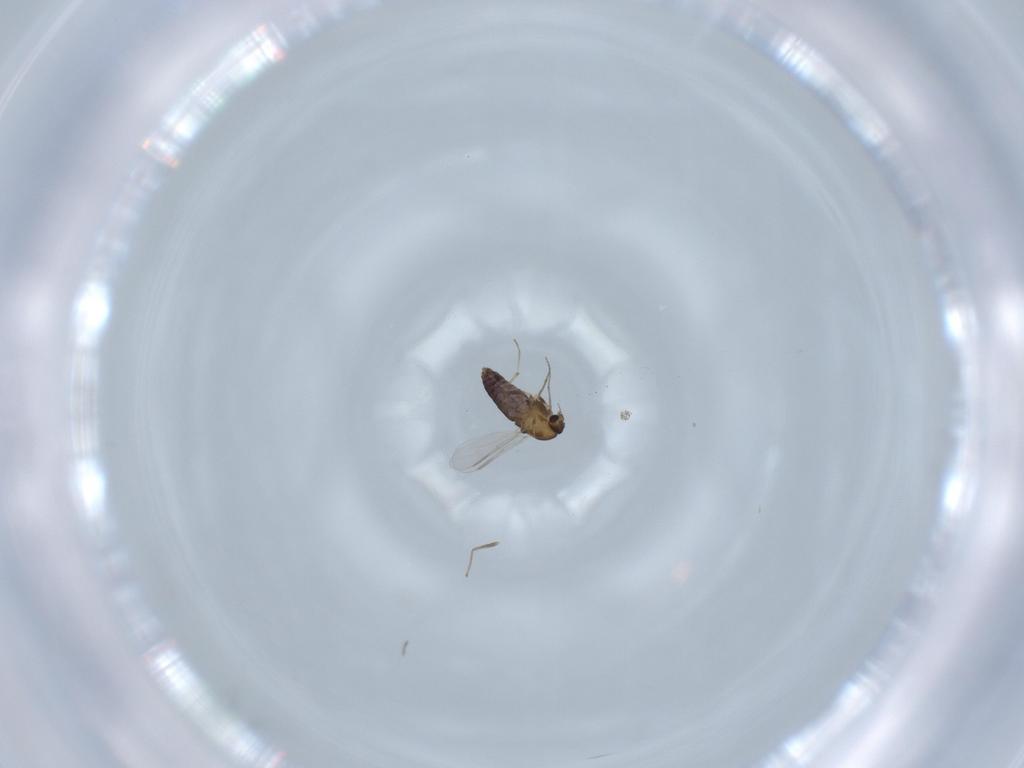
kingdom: Animalia
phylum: Arthropoda
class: Insecta
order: Diptera
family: Chironomidae
